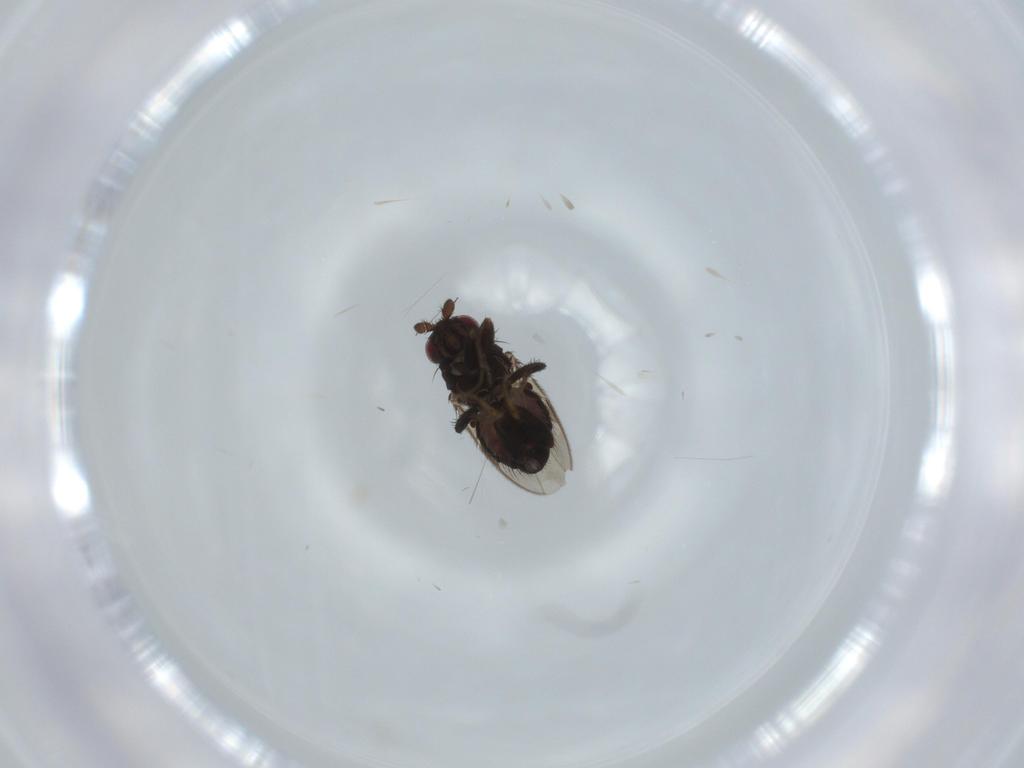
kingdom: Animalia
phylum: Arthropoda
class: Insecta
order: Diptera
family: Sphaeroceridae
